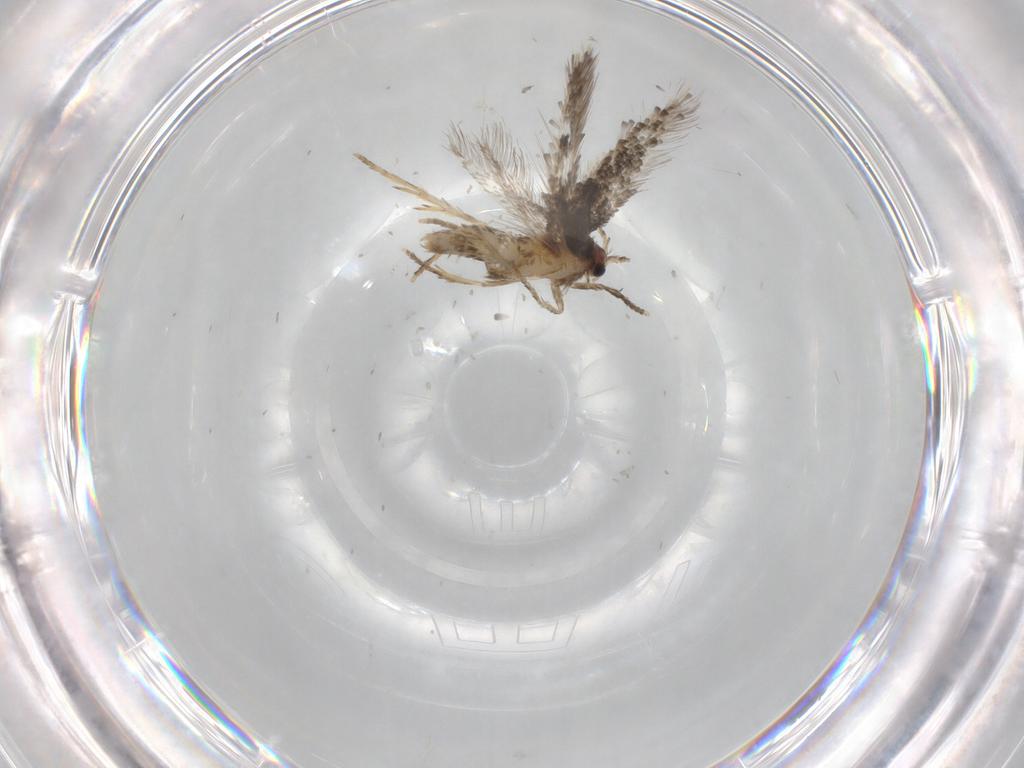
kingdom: Animalia
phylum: Arthropoda
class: Insecta
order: Lepidoptera
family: Nepticulidae
